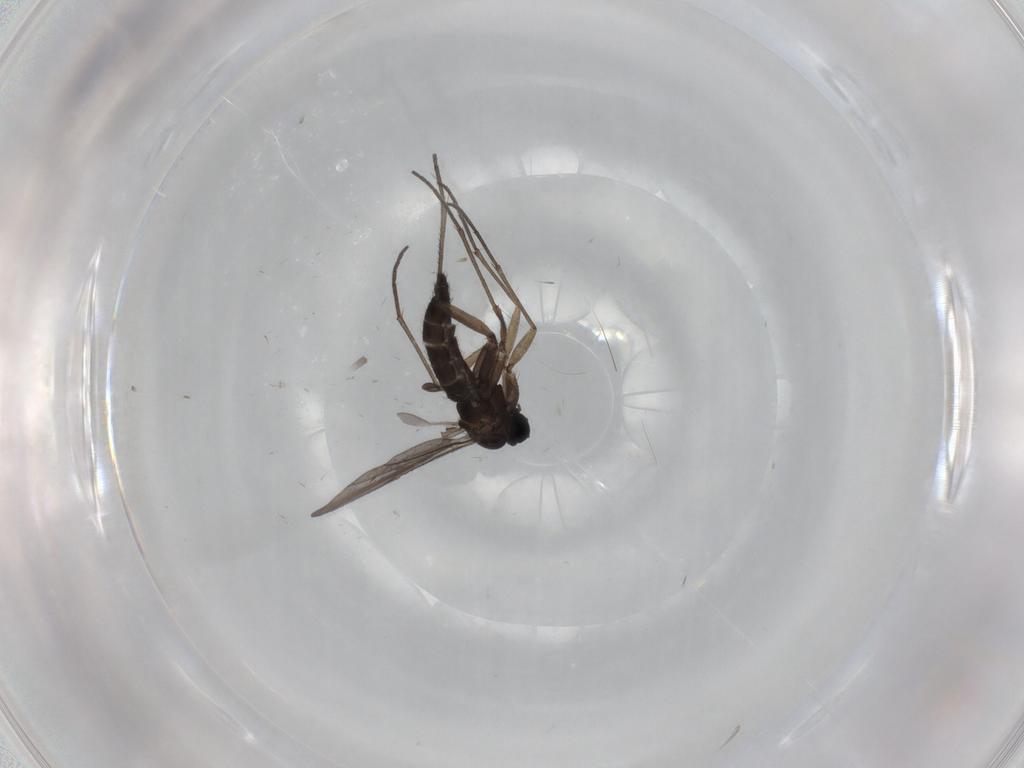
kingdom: Animalia
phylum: Arthropoda
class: Insecta
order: Diptera
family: Sciaridae
